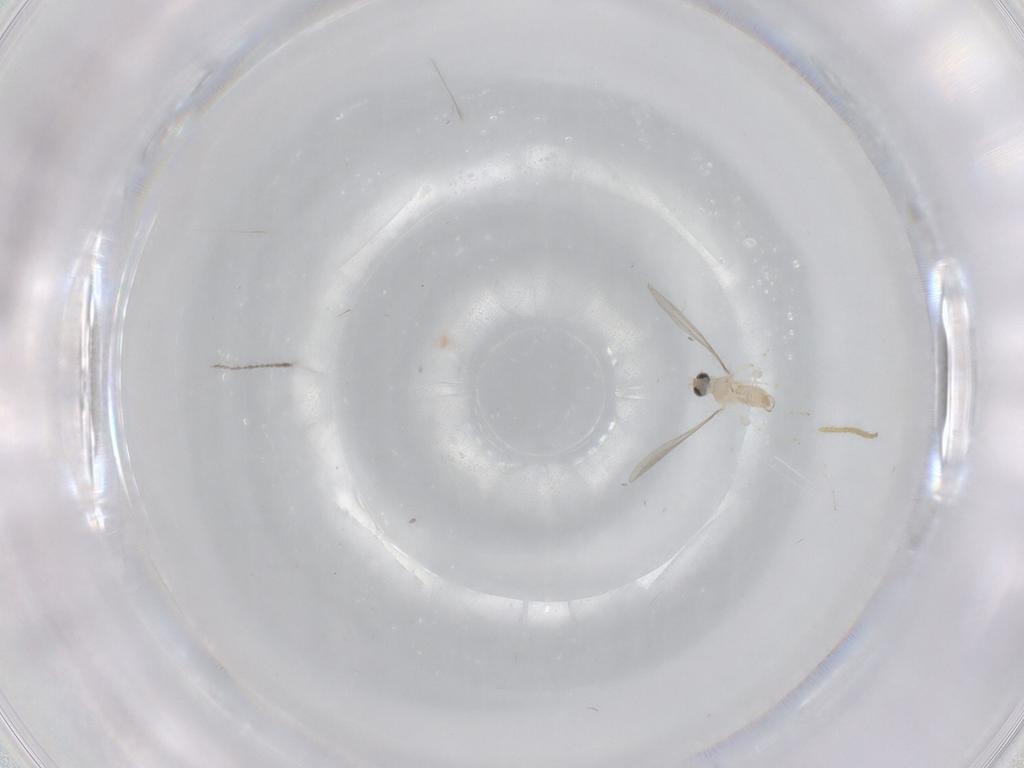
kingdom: Animalia
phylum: Arthropoda
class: Insecta
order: Diptera
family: Cecidomyiidae
